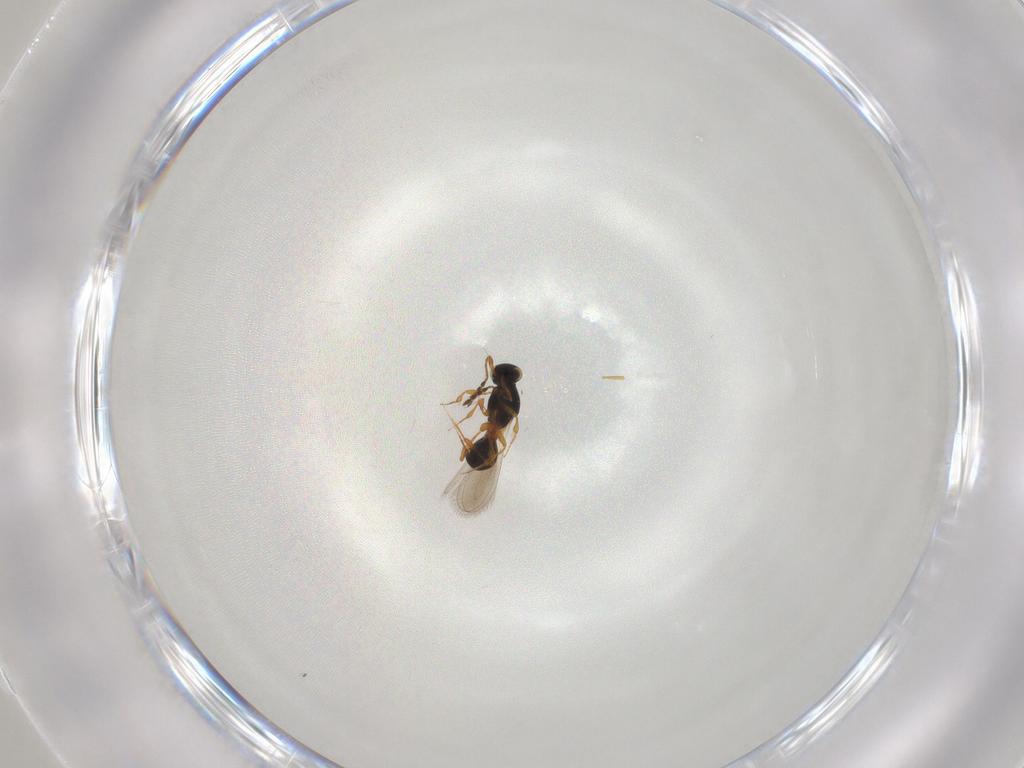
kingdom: Animalia
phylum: Arthropoda
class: Insecta
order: Hymenoptera
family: Platygastridae
